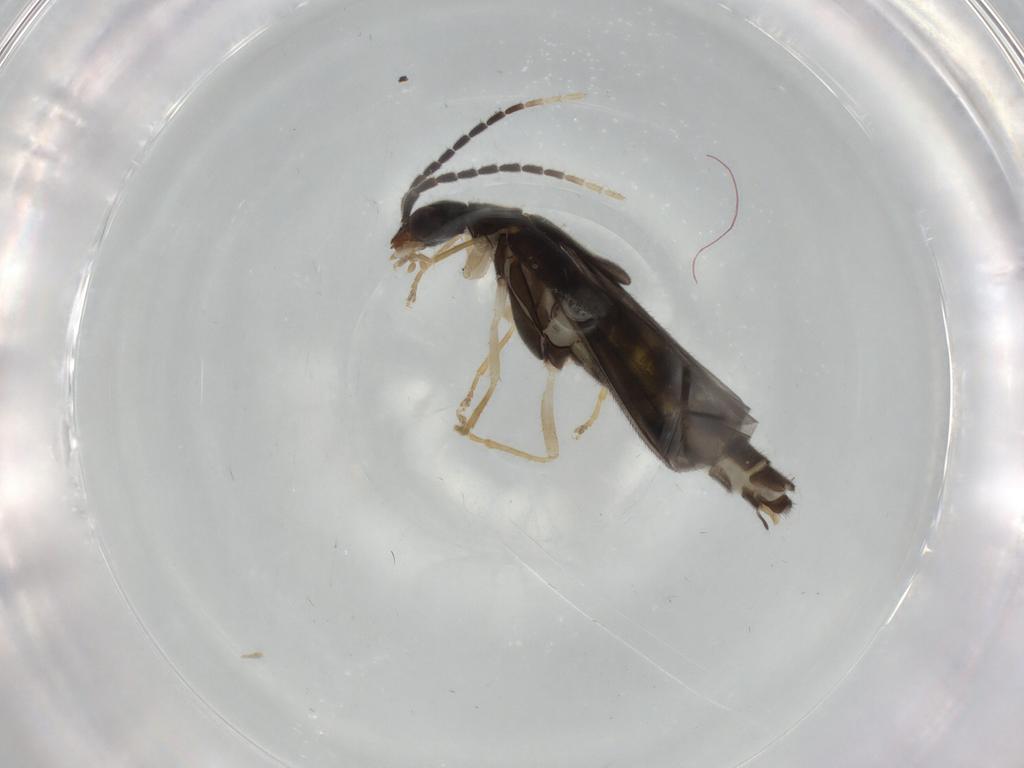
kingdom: Animalia
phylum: Arthropoda
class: Insecta
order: Coleoptera
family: Cantharidae
